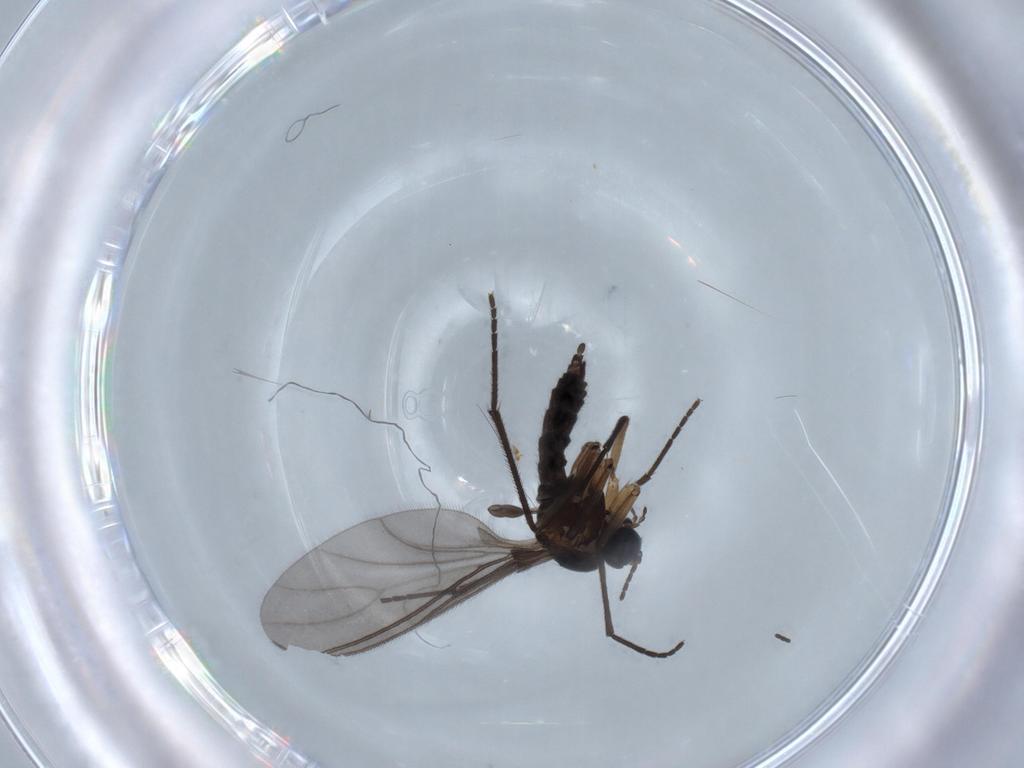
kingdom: Animalia
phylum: Arthropoda
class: Insecta
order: Diptera
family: Sciaridae
